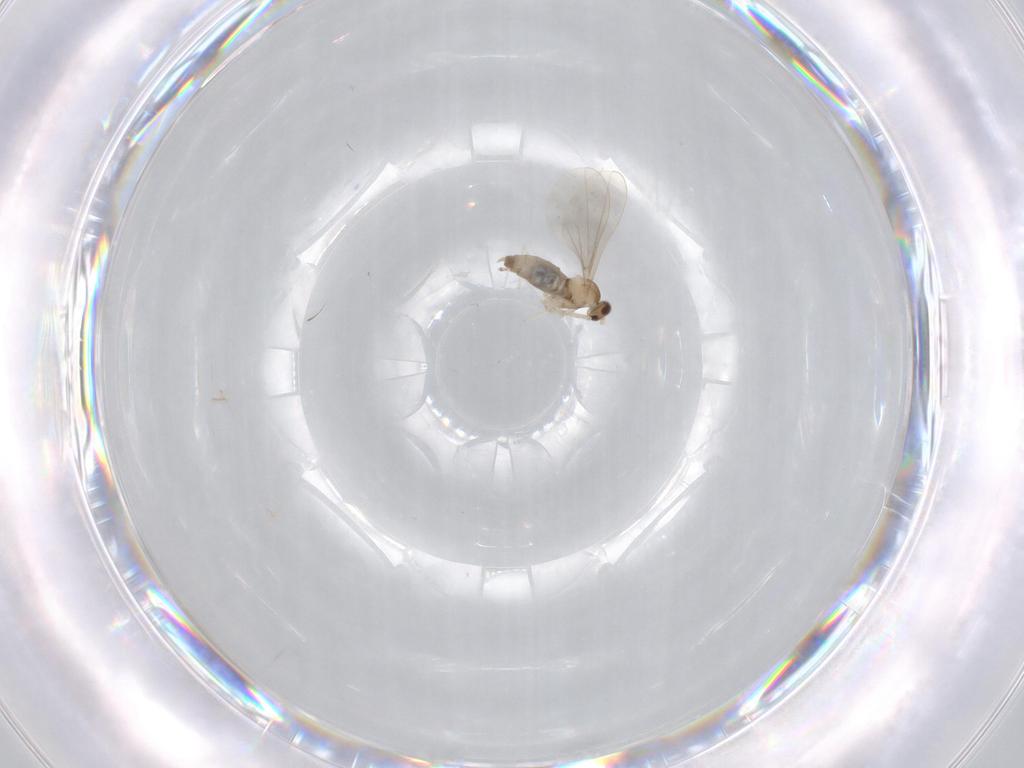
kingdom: Animalia
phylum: Arthropoda
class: Insecta
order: Diptera
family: Cecidomyiidae
